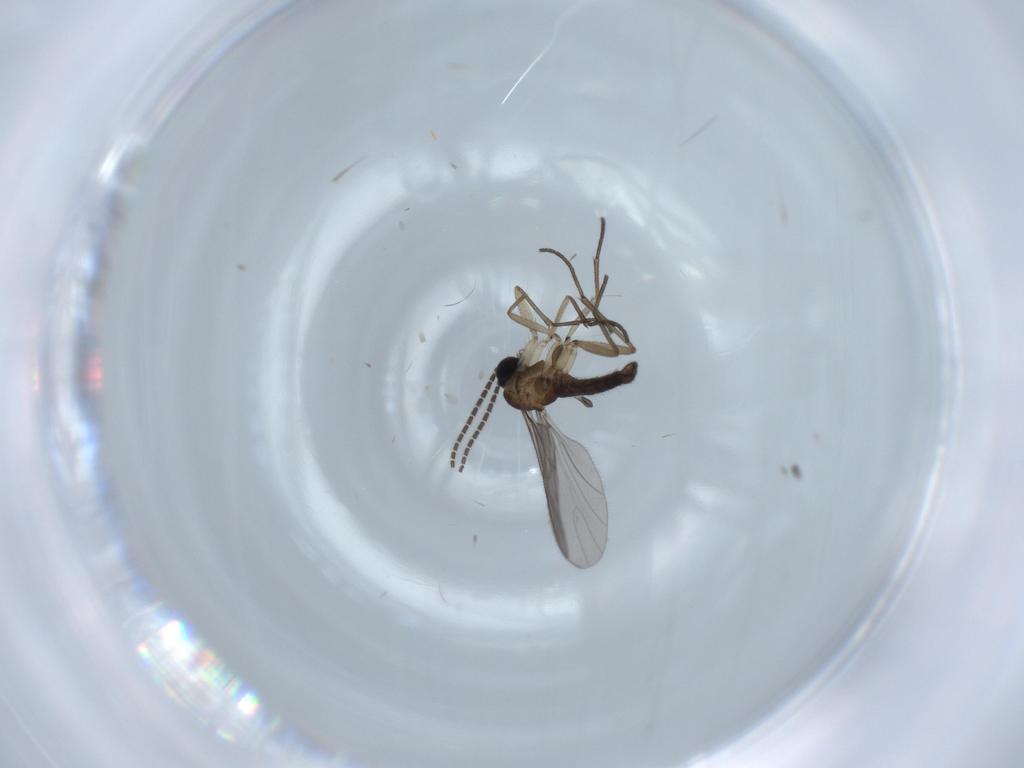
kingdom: Animalia
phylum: Arthropoda
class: Insecta
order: Diptera
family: Sciaridae
